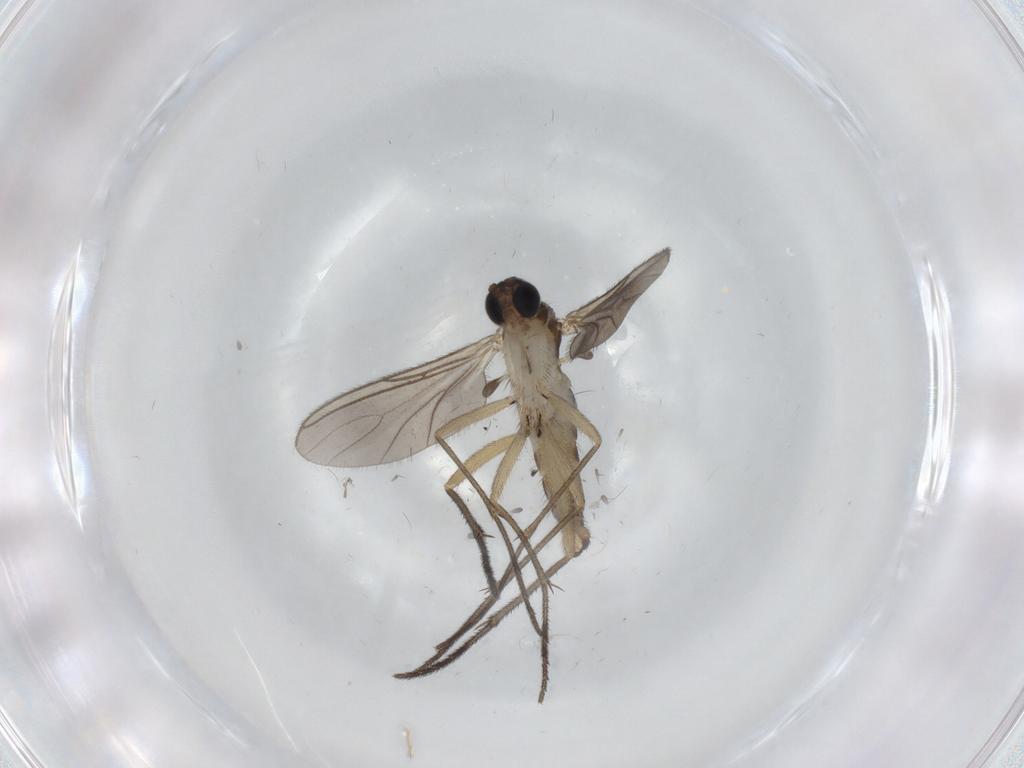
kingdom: Animalia
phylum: Arthropoda
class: Insecta
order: Diptera
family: Sciaridae
